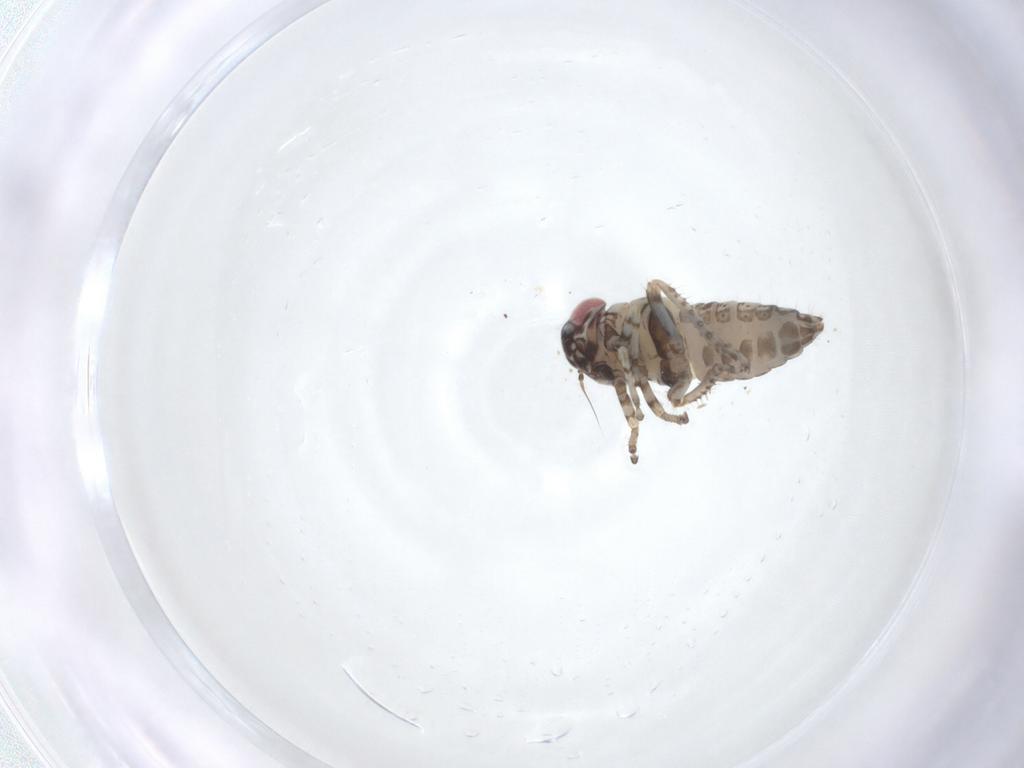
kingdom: Animalia
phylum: Arthropoda
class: Insecta
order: Hemiptera
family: Cicadellidae
